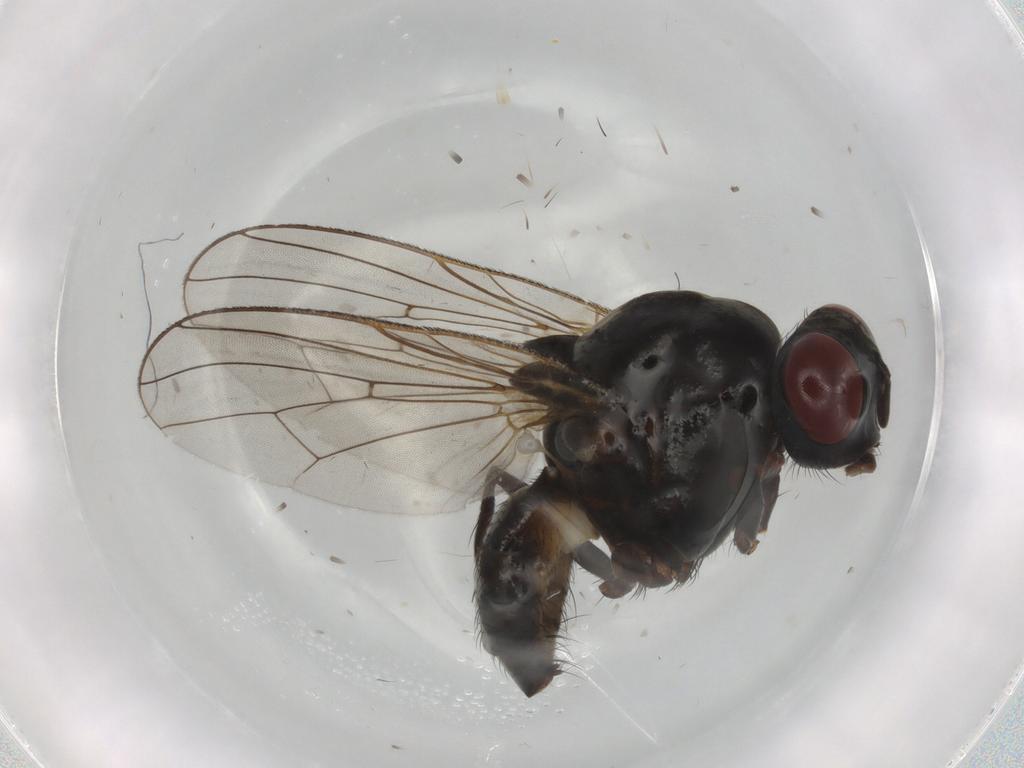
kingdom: Animalia
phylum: Arthropoda
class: Insecta
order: Diptera
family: Anthomyiidae
